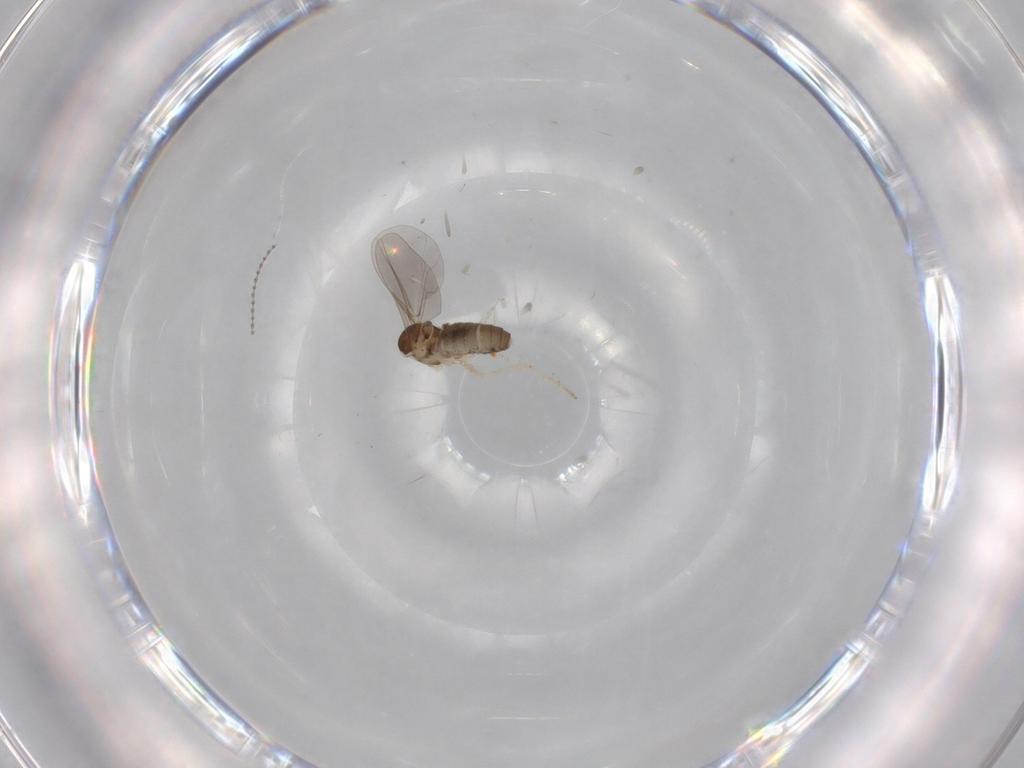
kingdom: Animalia
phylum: Arthropoda
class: Insecta
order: Diptera
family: Cecidomyiidae
